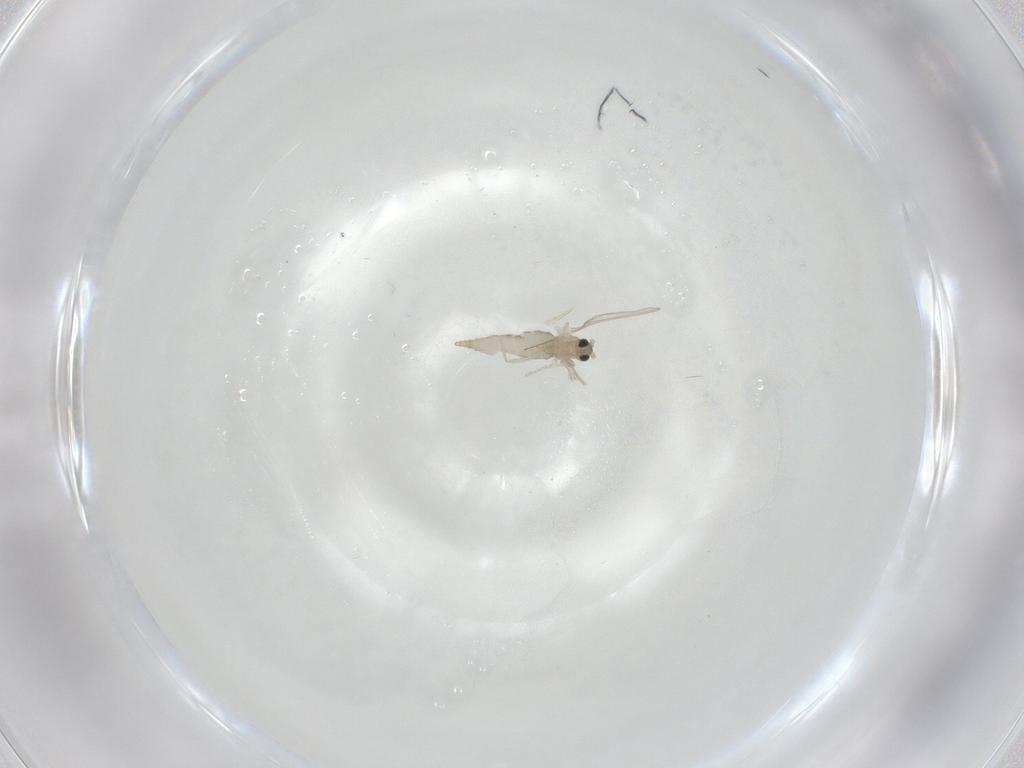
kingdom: Animalia
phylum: Arthropoda
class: Insecta
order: Diptera
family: Cecidomyiidae
